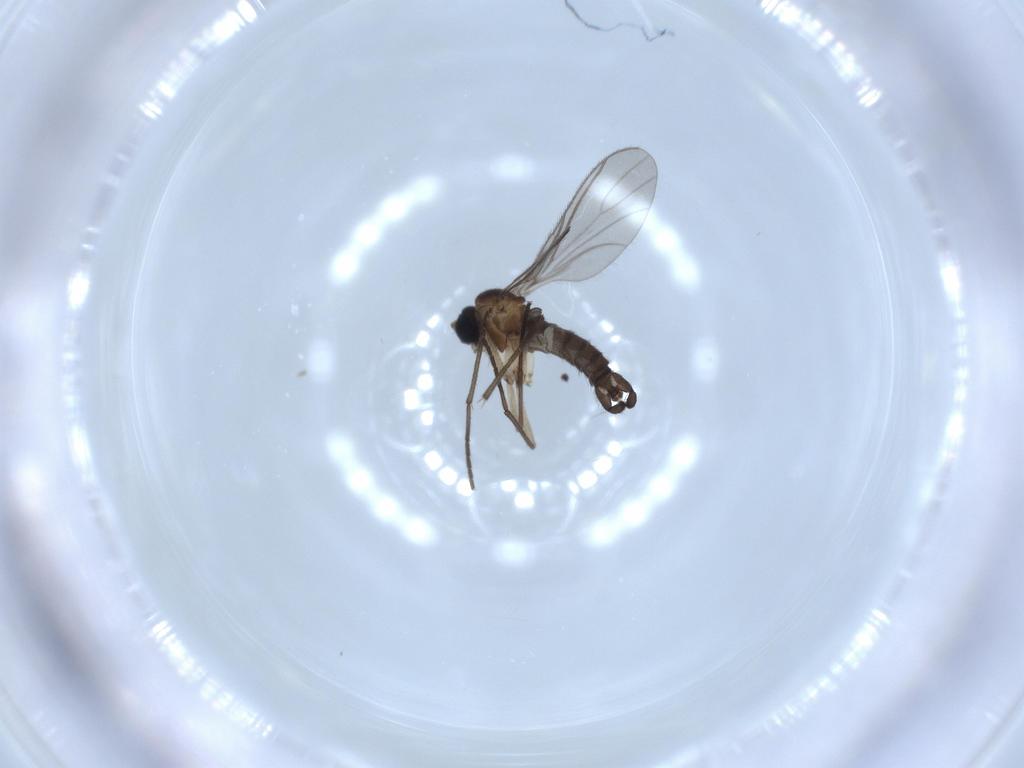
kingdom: Animalia
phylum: Arthropoda
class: Insecta
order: Diptera
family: Sciaridae
